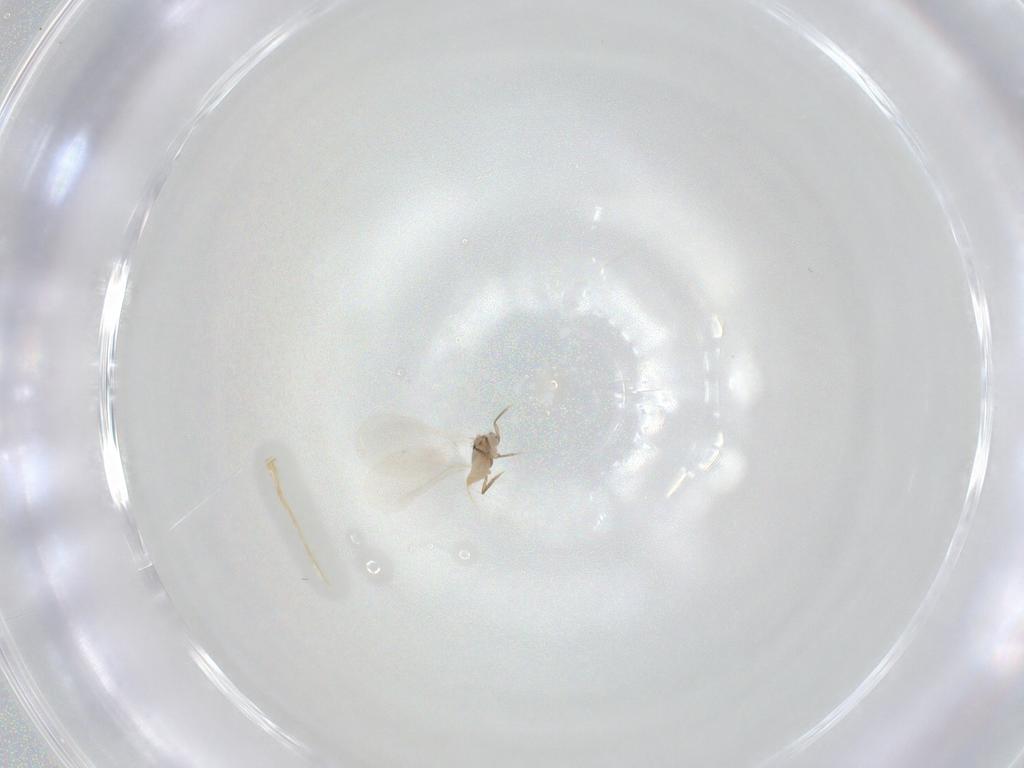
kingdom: Animalia
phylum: Arthropoda
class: Insecta
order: Hemiptera
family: Diaspididae
